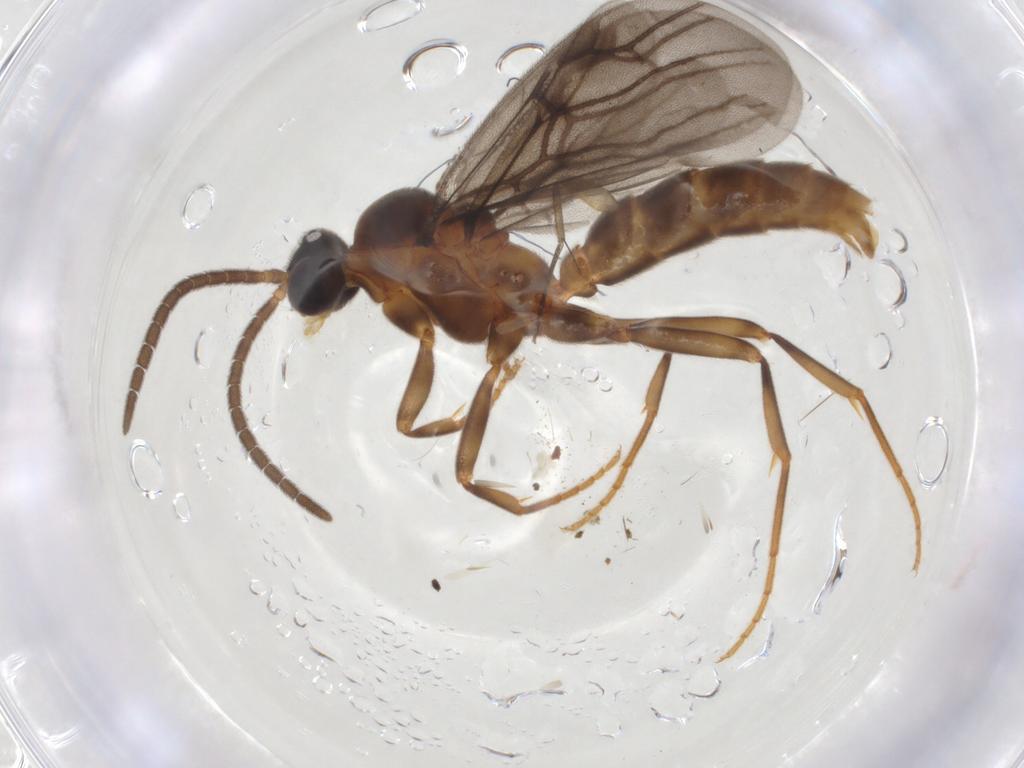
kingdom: Animalia
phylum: Arthropoda
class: Insecta
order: Hymenoptera
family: Formicidae
